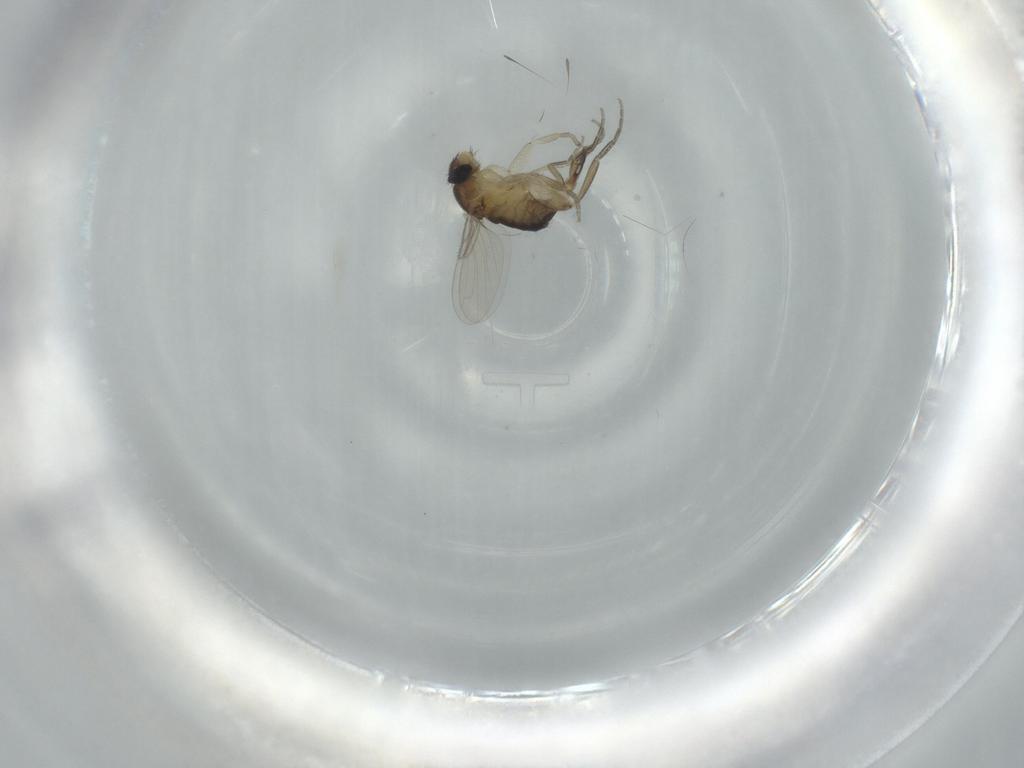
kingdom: Animalia
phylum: Arthropoda
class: Insecta
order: Diptera
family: Phoridae
